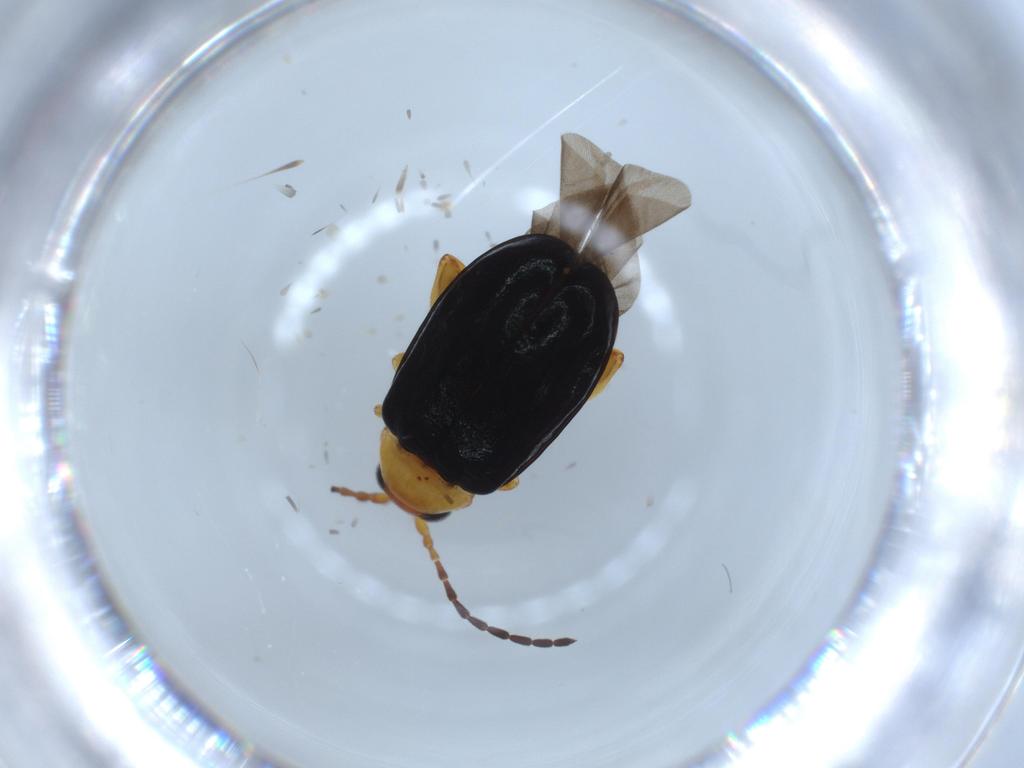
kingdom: Animalia
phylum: Arthropoda
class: Insecta
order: Coleoptera
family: Chrysomelidae
